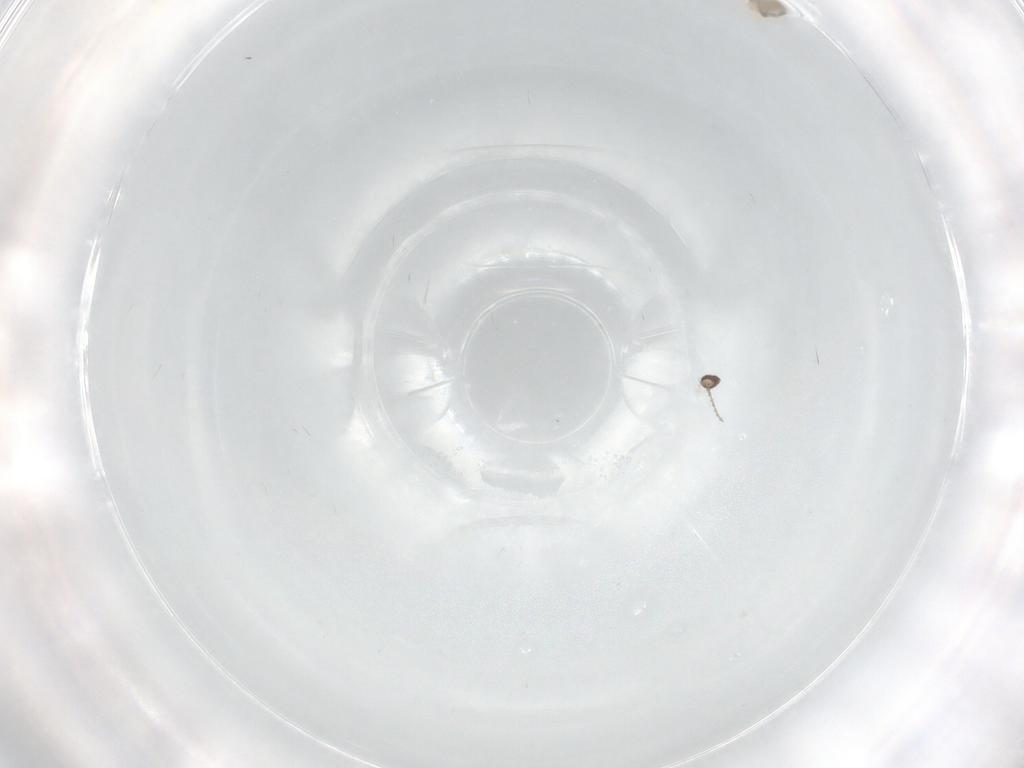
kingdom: Animalia
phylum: Arthropoda
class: Insecta
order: Diptera
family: Cecidomyiidae
